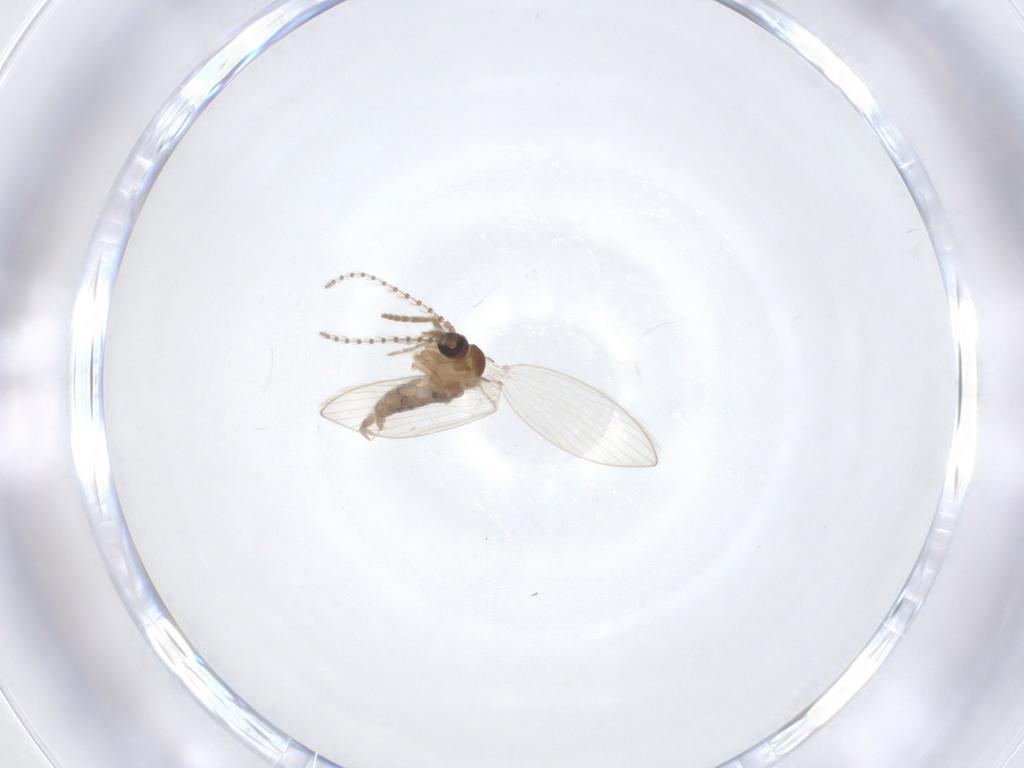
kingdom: Animalia
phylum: Arthropoda
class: Insecta
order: Diptera
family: Psychodidae
